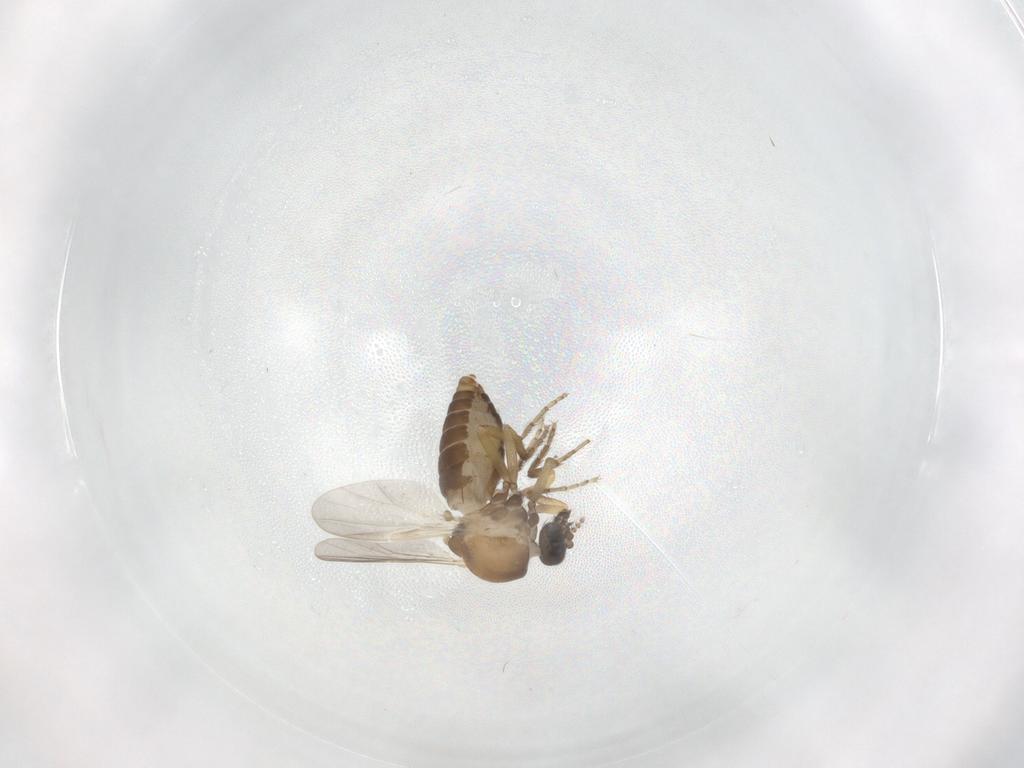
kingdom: Animalia
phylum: Arthropoda
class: Insecta
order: Diptera
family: Ceratopogonidae
